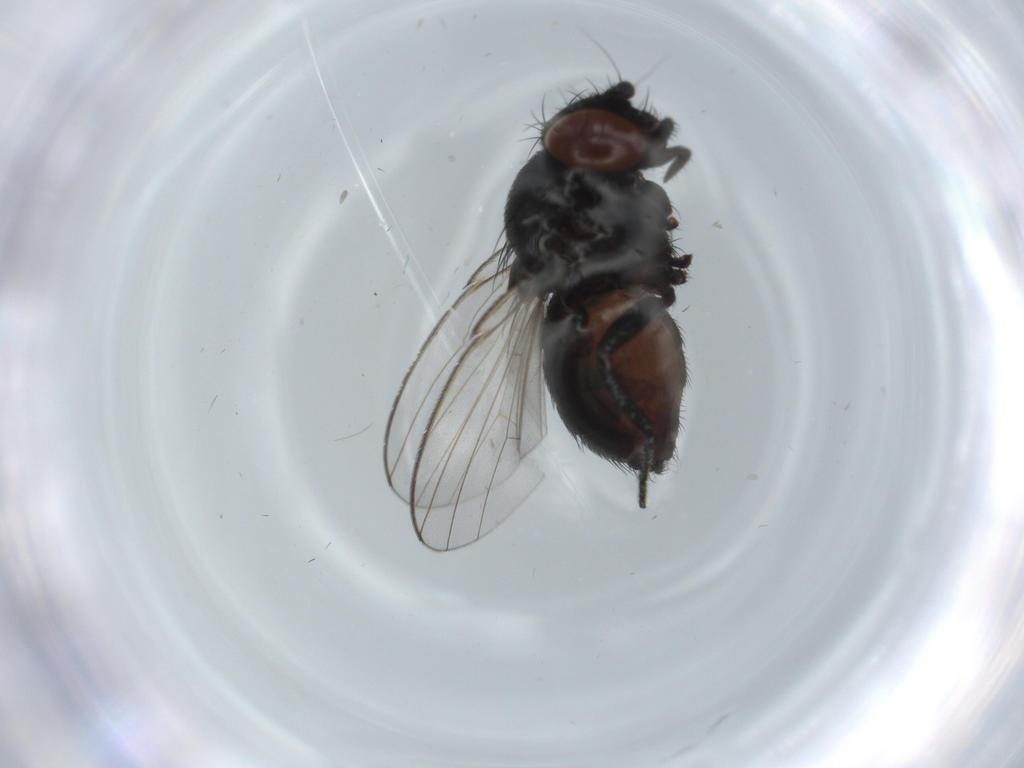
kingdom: Animalia
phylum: Arthropoda
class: Insecta
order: Diptera
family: Milichiidae
